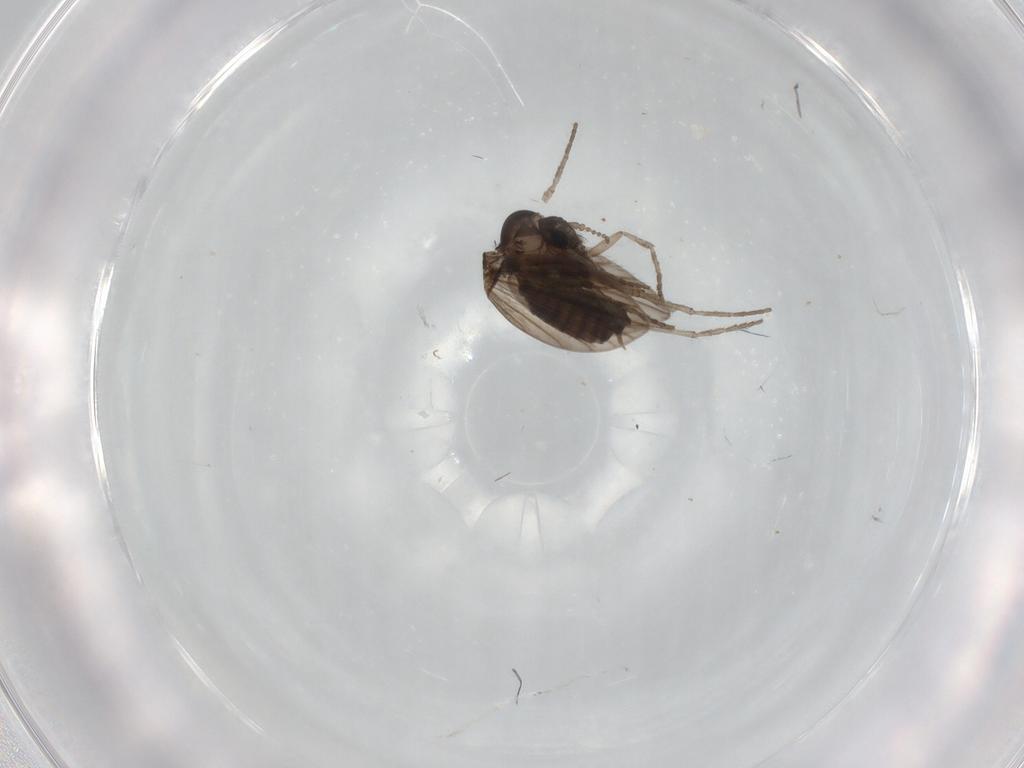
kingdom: Animalia
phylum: Arthropoda
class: Insecta
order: Diptera
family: Psychodidae
